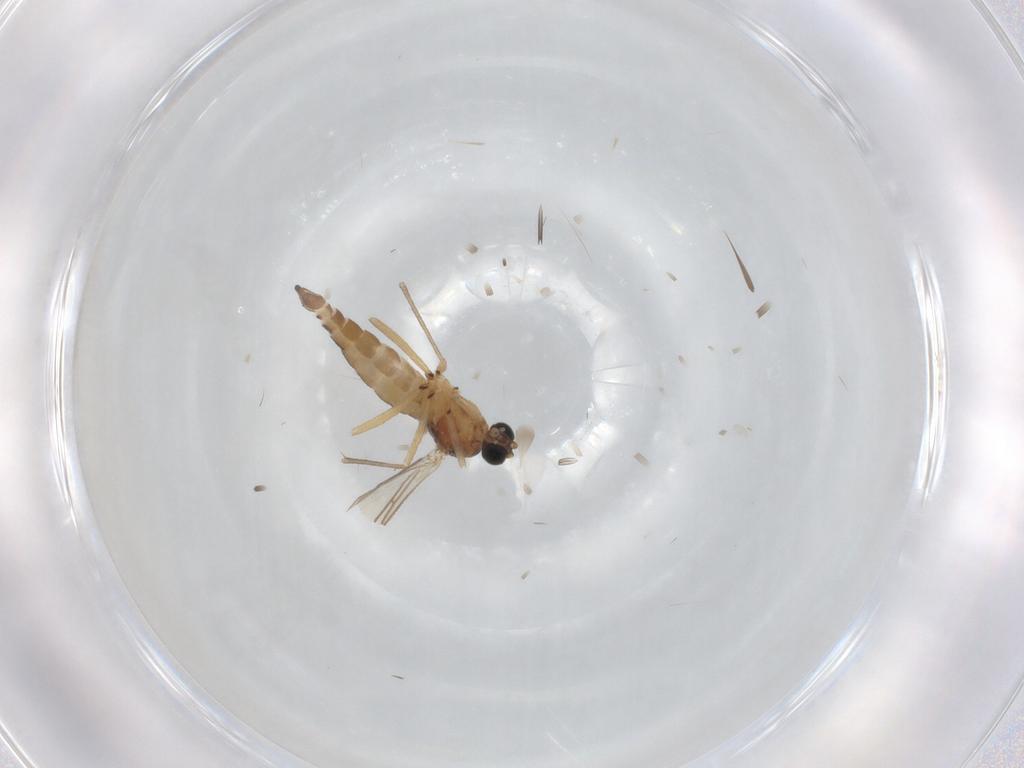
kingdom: Animalia
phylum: Arthropoda
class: Insecta
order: Diptera
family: Sciaridae
